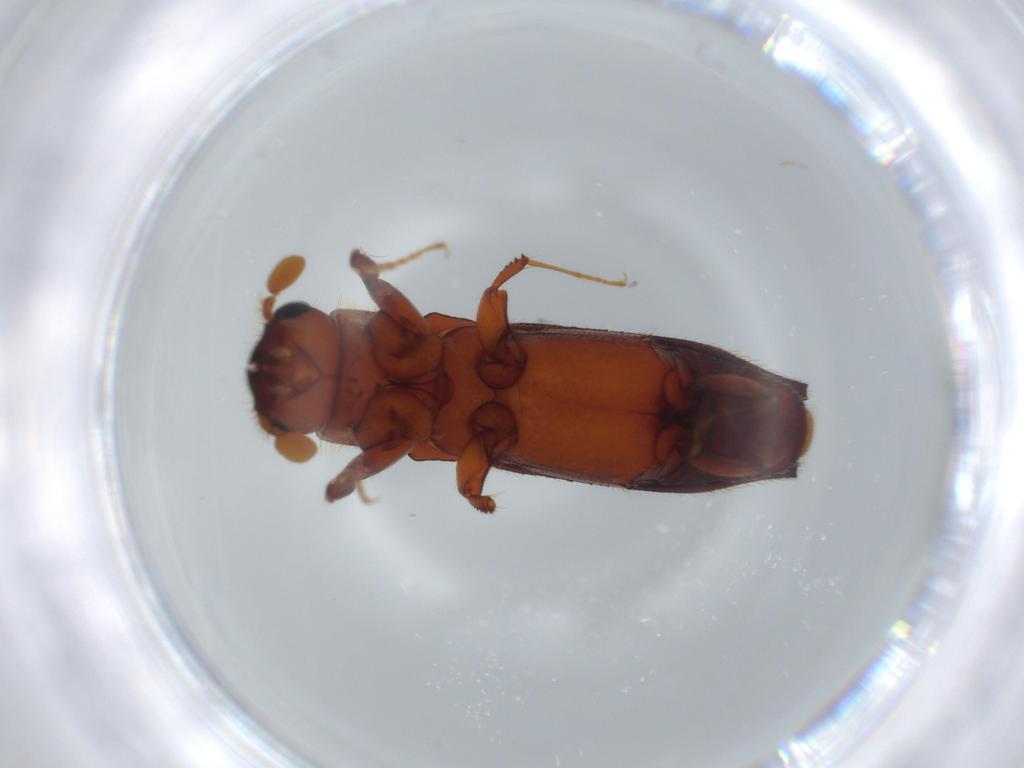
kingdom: Animalia
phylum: Arthropoda
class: Insecta
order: Coleoptera
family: Curculionidae
